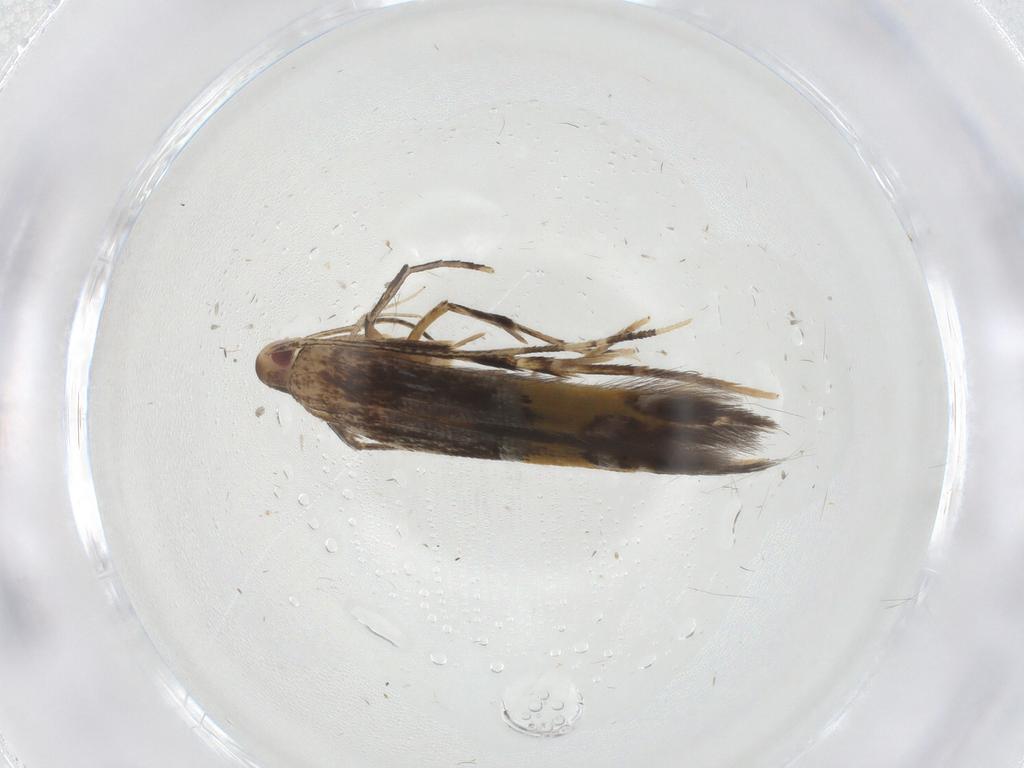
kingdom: Animalia
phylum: Arthropoda
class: Insecta
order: Lepidoptera
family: Cosmopterigidae
